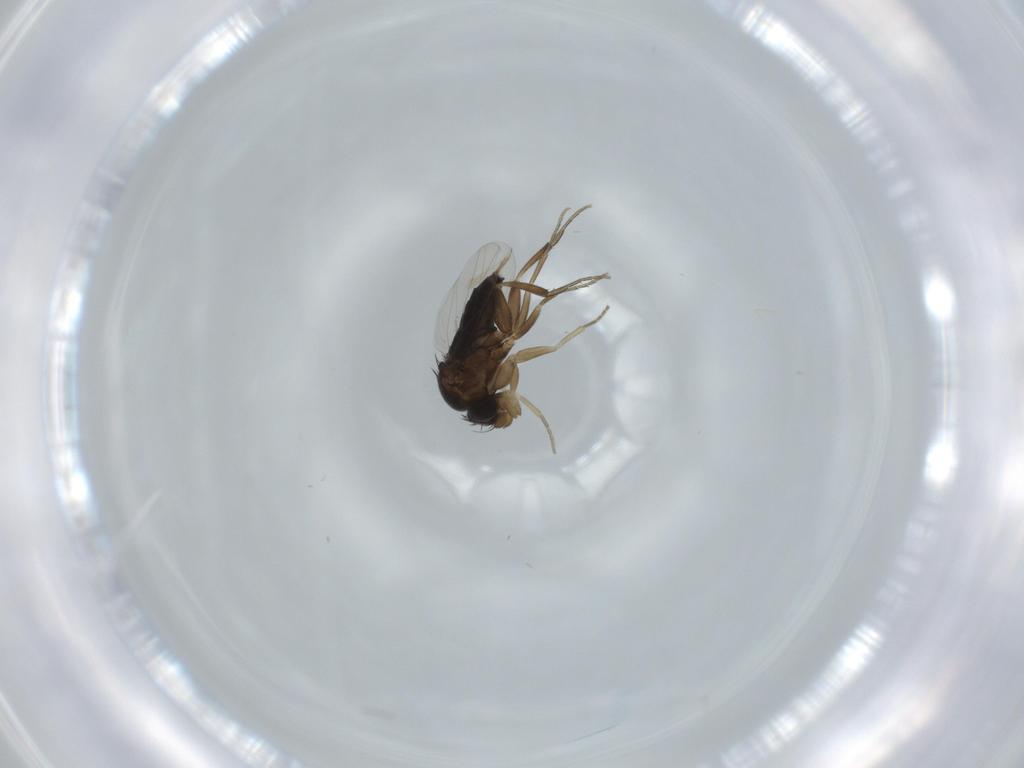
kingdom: Animalia
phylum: Arthropoda
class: Insecta
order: Diptera
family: Phoridae
